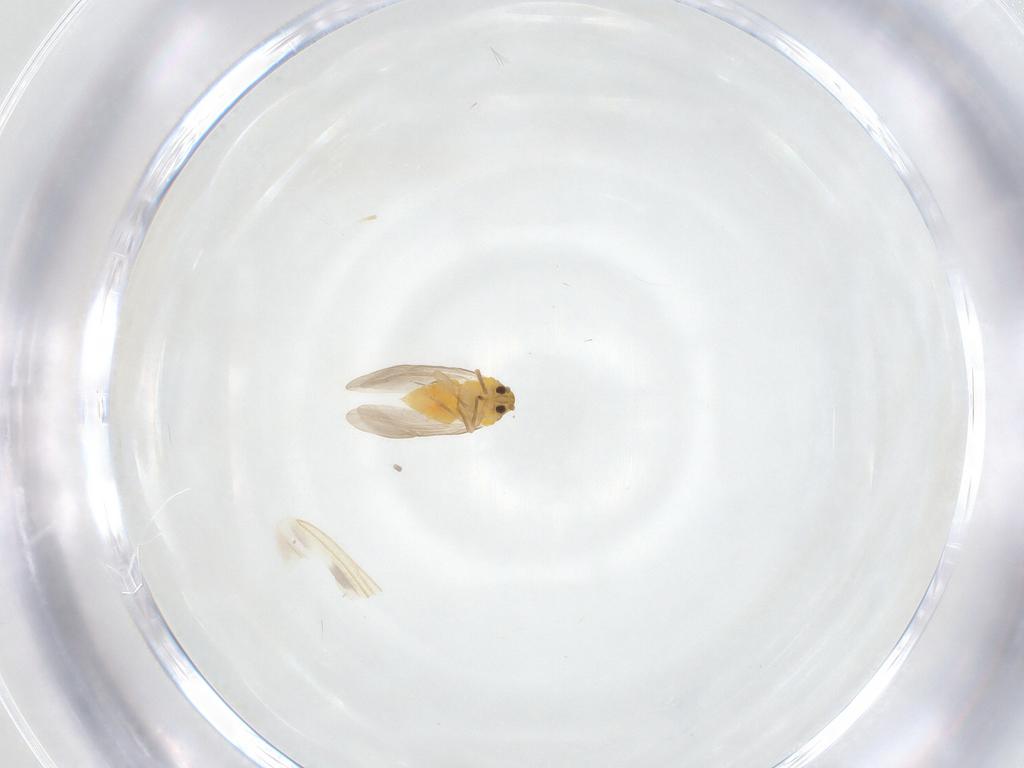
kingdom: Animalia
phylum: Arthropoda
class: Insecta
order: Hemiptera
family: Aleyrodidae
